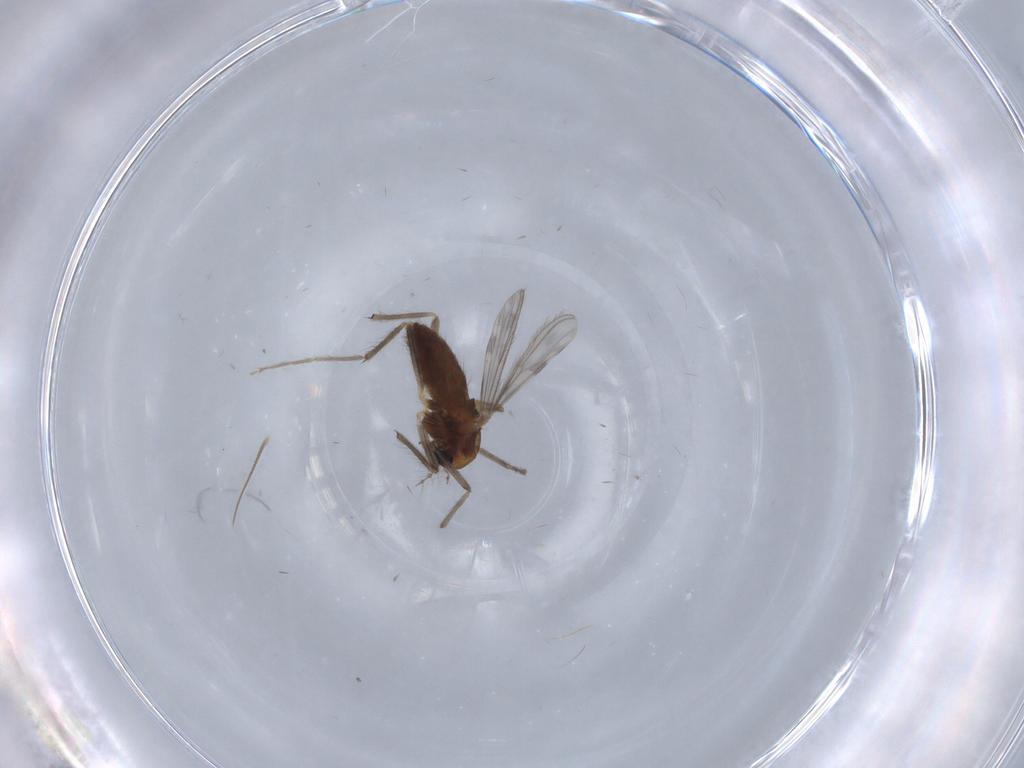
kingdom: Animalia
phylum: Arthropoda
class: Insecta
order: Diptera
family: Chironomidae
